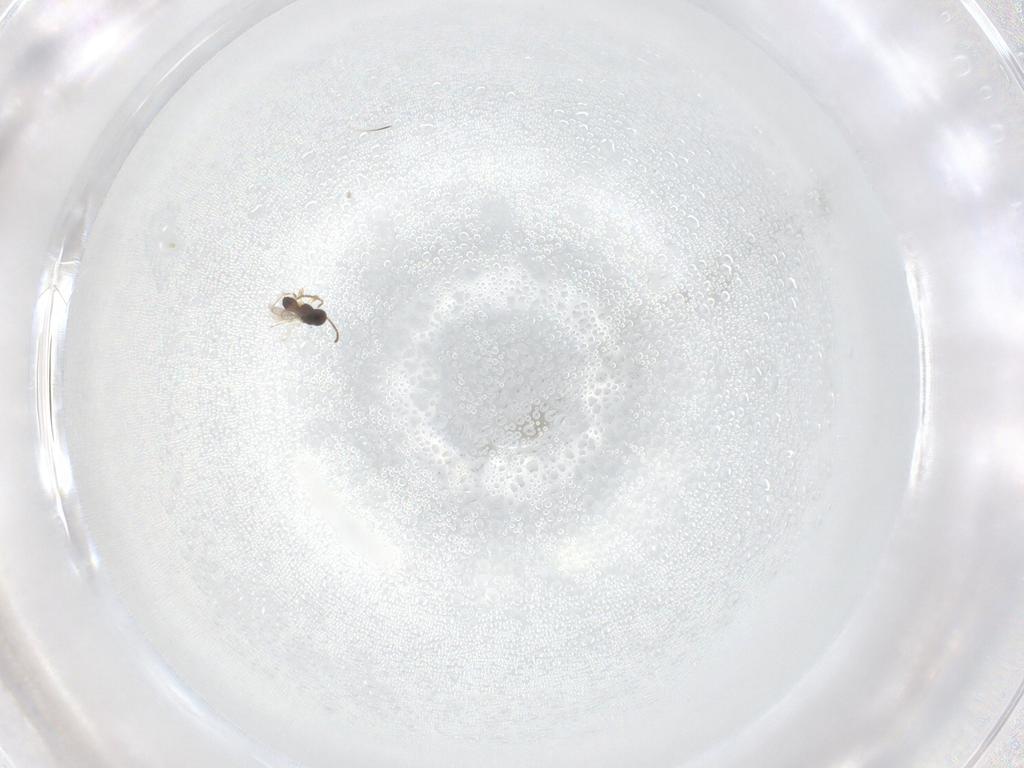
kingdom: Animalia
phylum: Arthropoda
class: Insecta
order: Hymenoptera
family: Scelionidae
